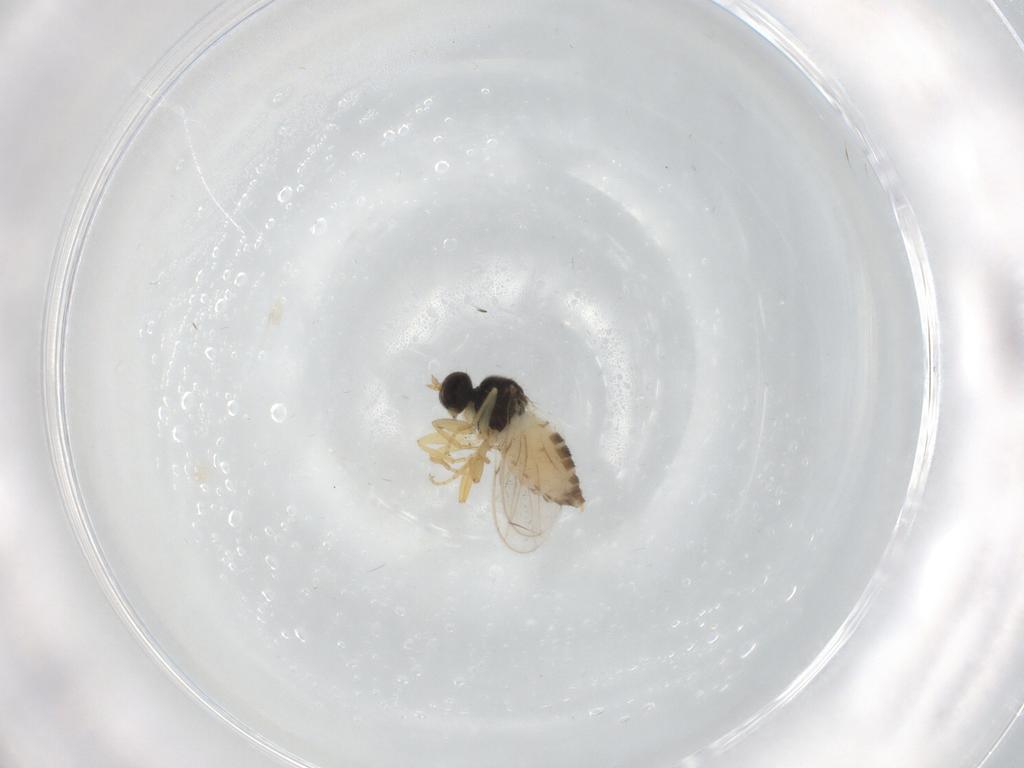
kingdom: Animalia
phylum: Arthropoda
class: Insecta
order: Diptera
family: Hybotidae
